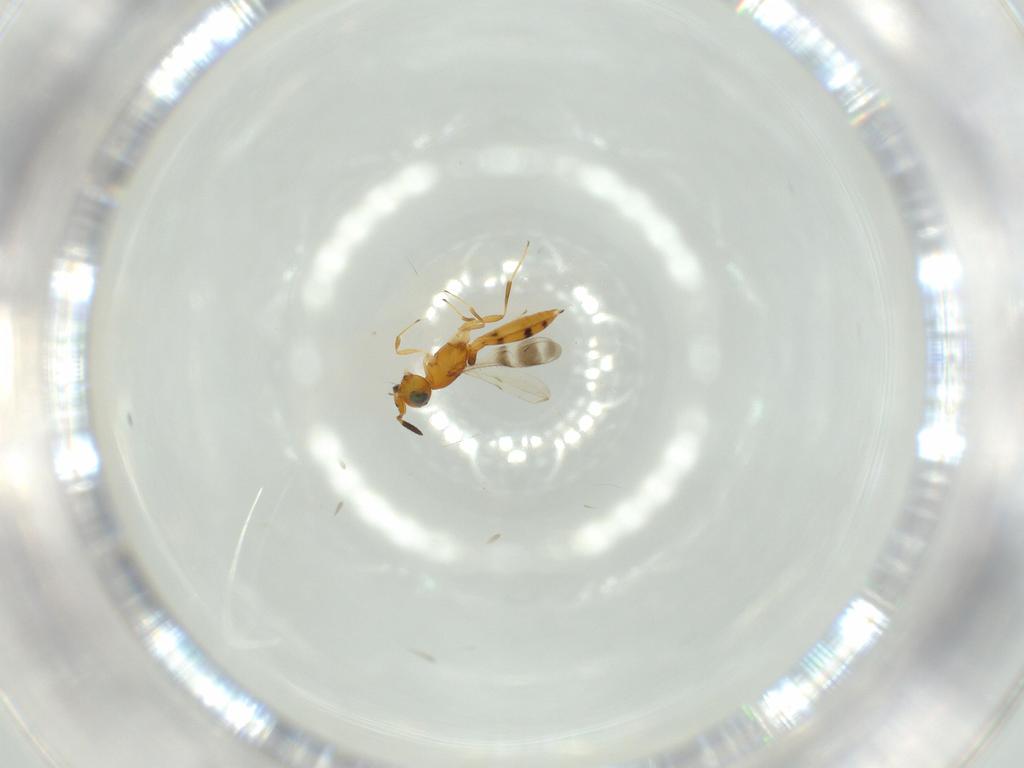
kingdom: Animalia
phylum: Arthropoda
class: Insecta
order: Hymenoptera
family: Scelionidae
